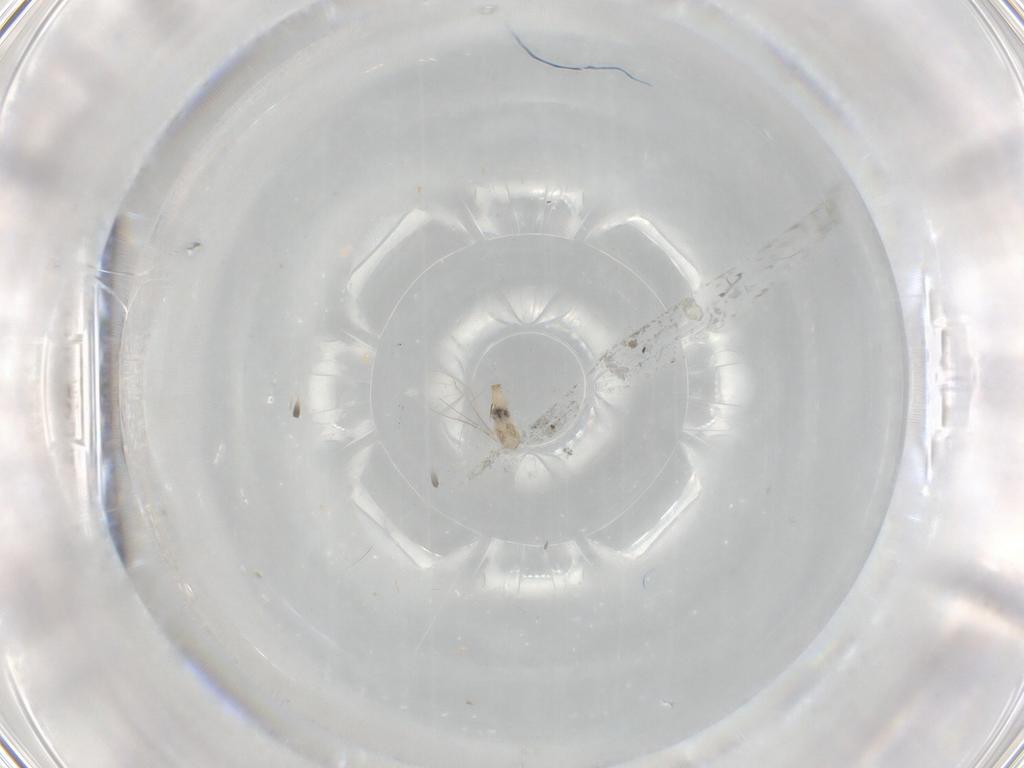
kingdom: Animalia
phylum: Arthropoda
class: Insecta
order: Diptera
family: Cecidomyiidae
